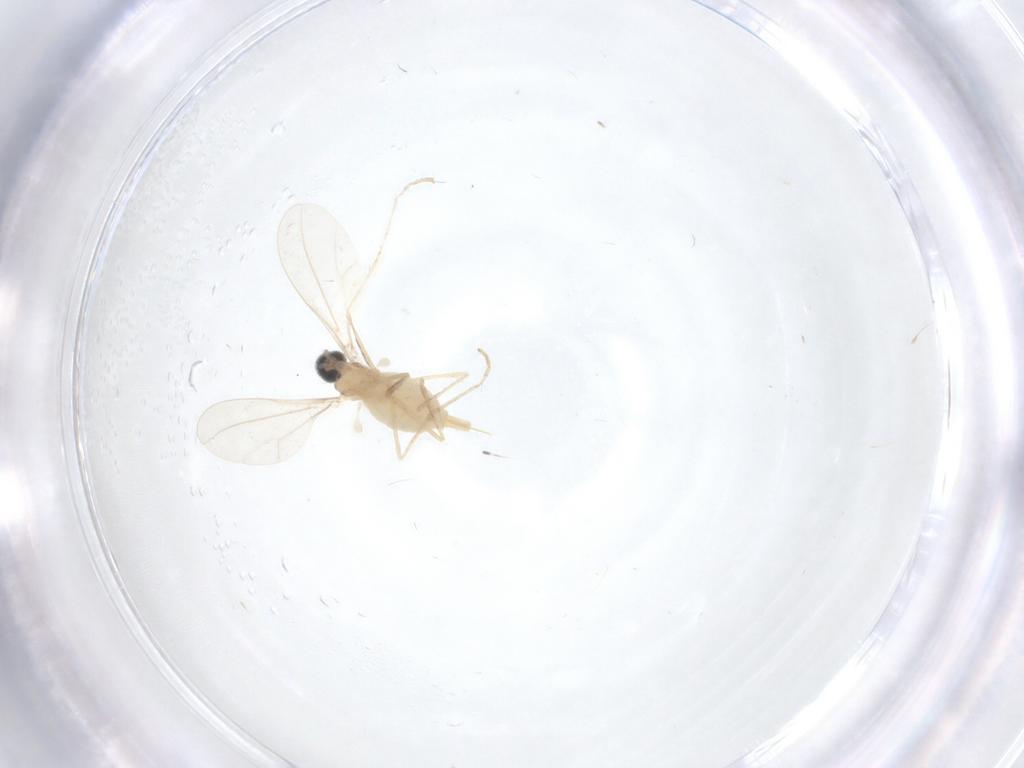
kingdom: Animalia
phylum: Arthropoda
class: Insecta
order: Diptera
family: Cecidomyiidae
